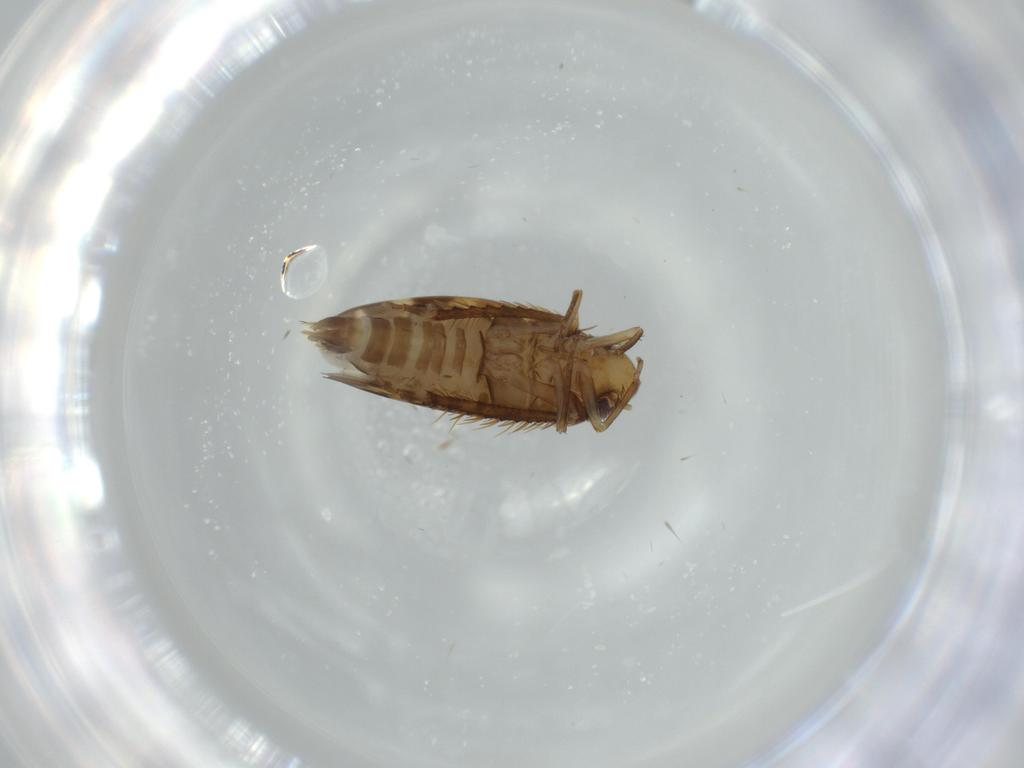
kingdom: Animalia
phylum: Arthropoda
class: Insecta
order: Hemiptera
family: Cicadellidae
